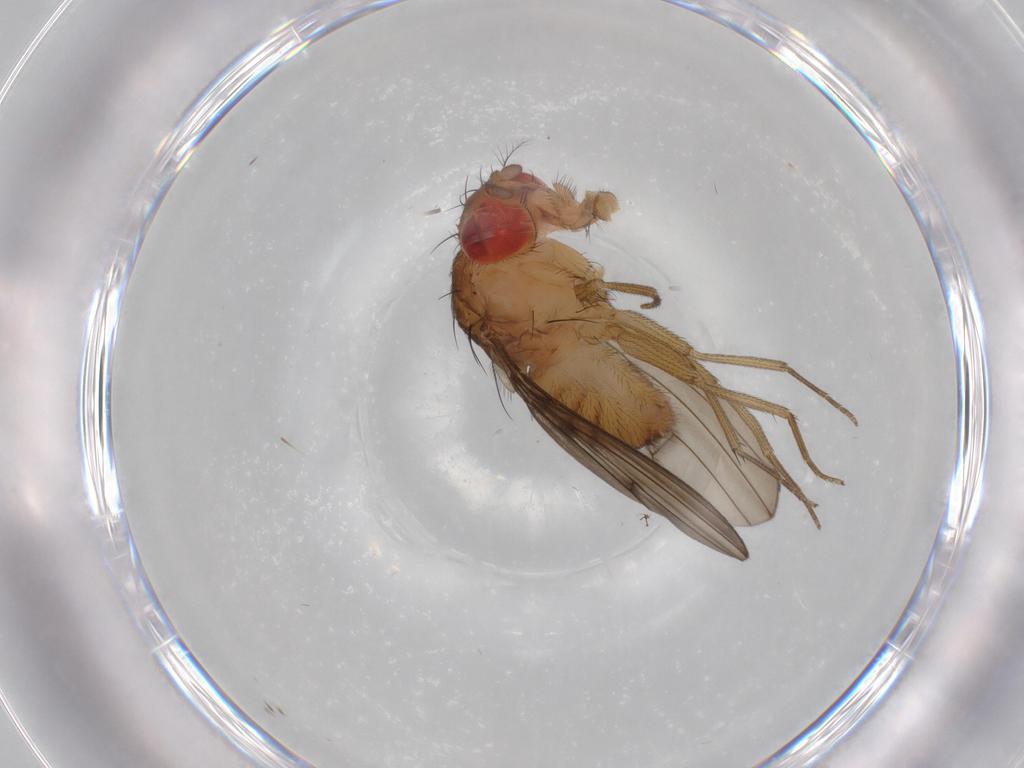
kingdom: Animalia
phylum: Arthropoda
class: Insecta
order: Diptera
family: Drosophilidae
